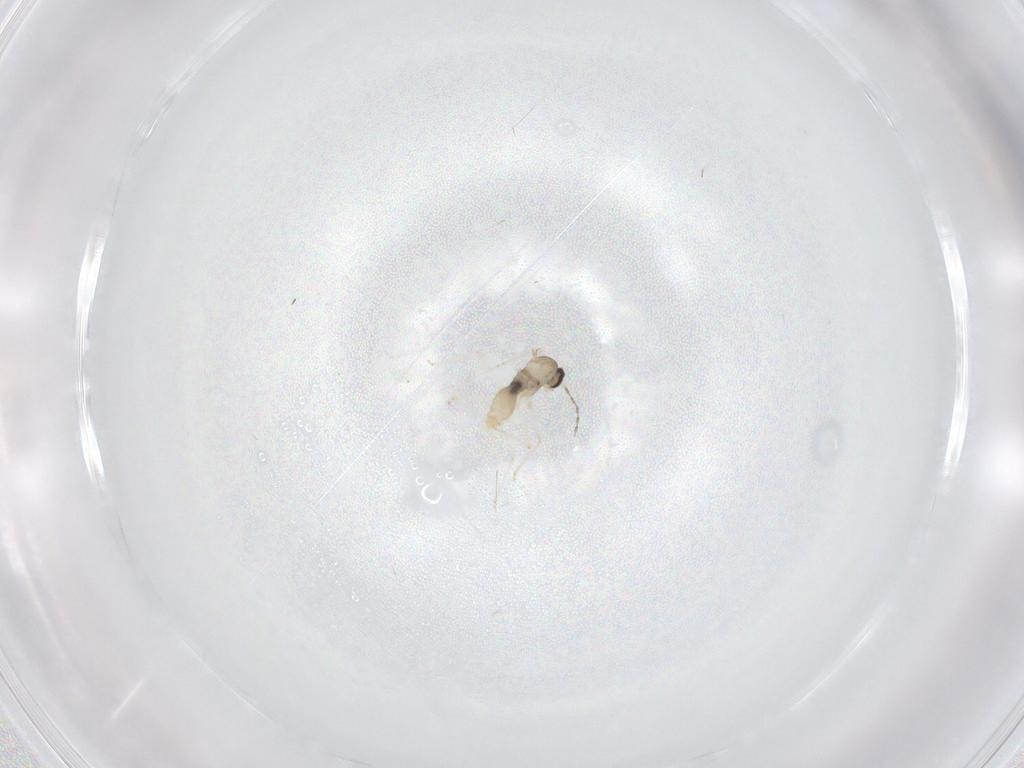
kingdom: Animalia
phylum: Arthropoda
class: Insecta
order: Diptera
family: Cecidomyiidae
